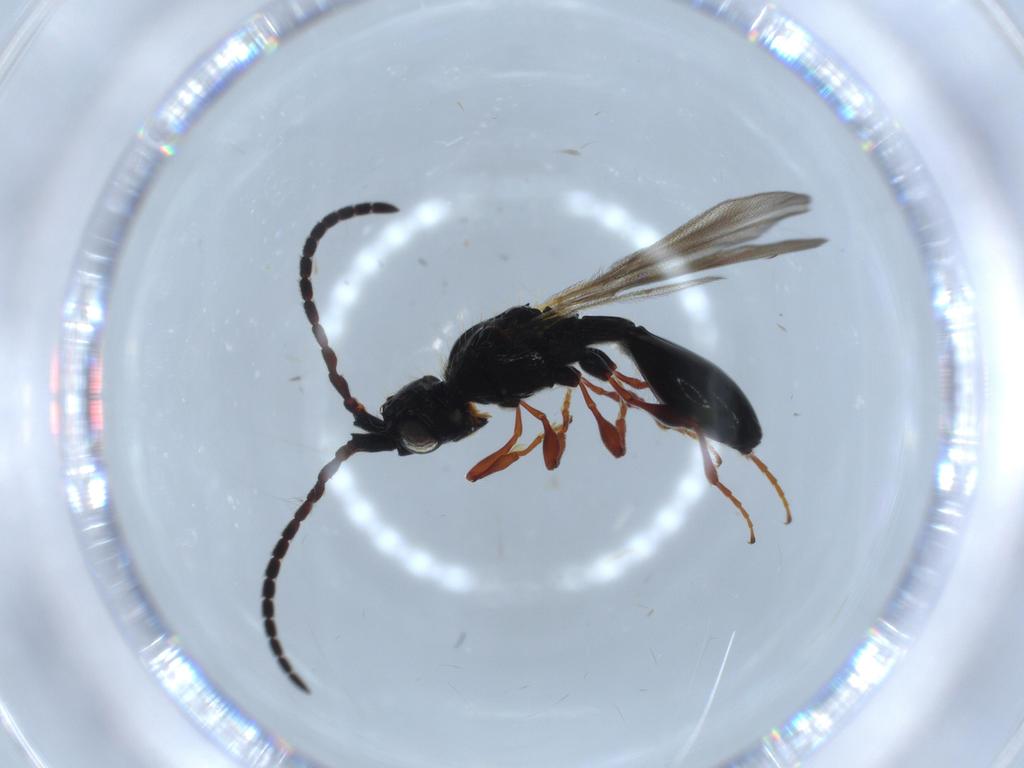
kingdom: Animalia
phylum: Arthropoda
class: Insecta
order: Hymenoptera
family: Diapriidae
